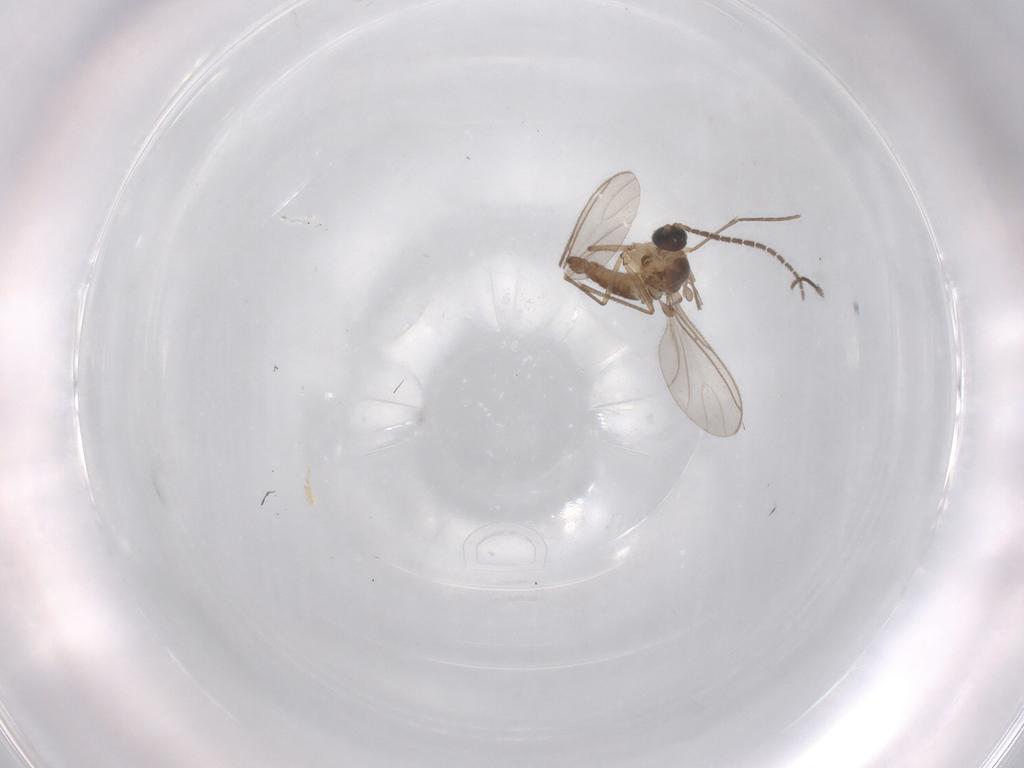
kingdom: Animalia
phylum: Arthropoda
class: Insecta
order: Diptera
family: Sciaridae
